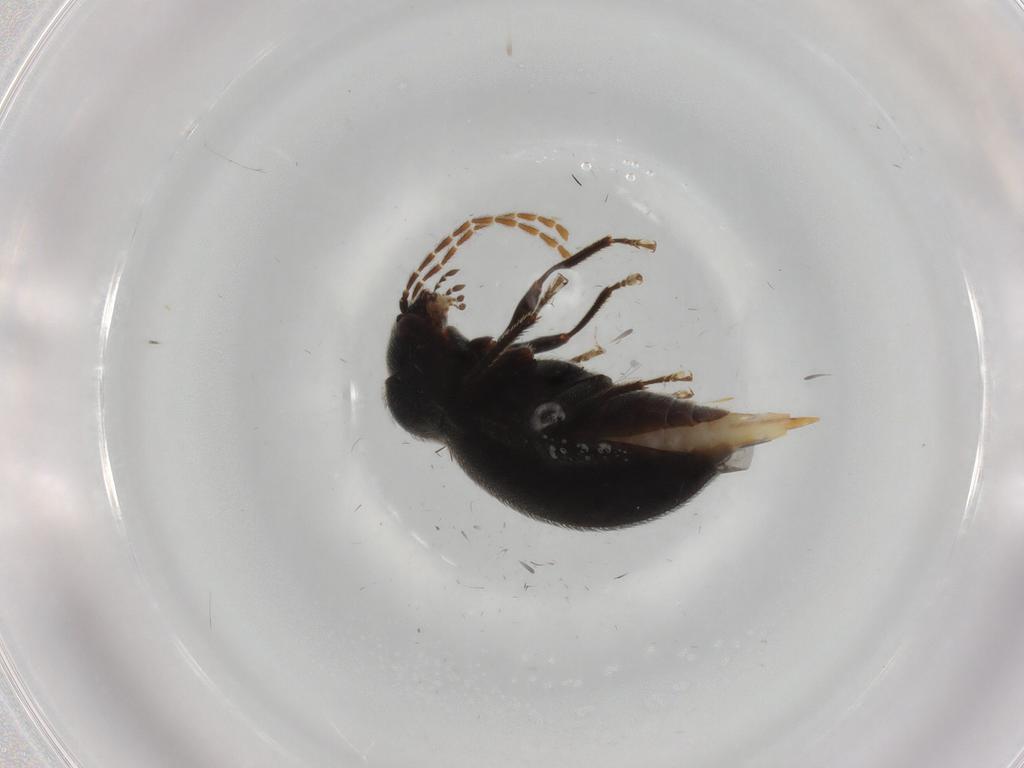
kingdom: Animalia
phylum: Arthropoda
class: Insecta
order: Coleoptera
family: Ptilodactylidae
